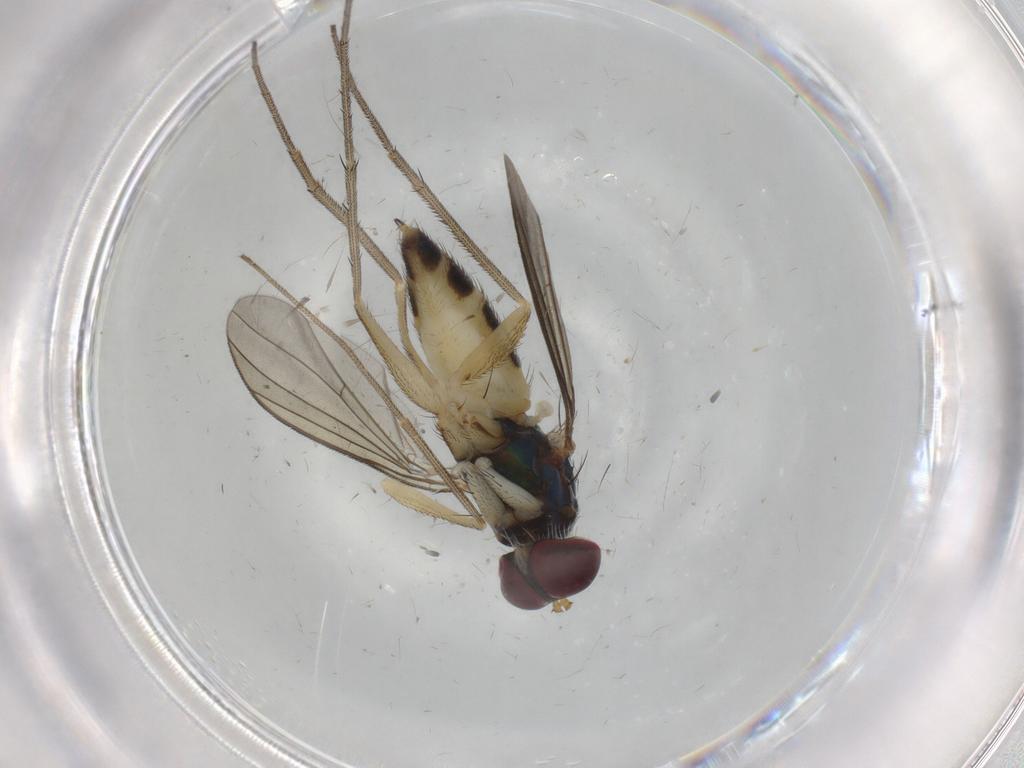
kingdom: Animalia
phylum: Arthropoda
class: Insecta
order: Diptera
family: Dolichopodidae
